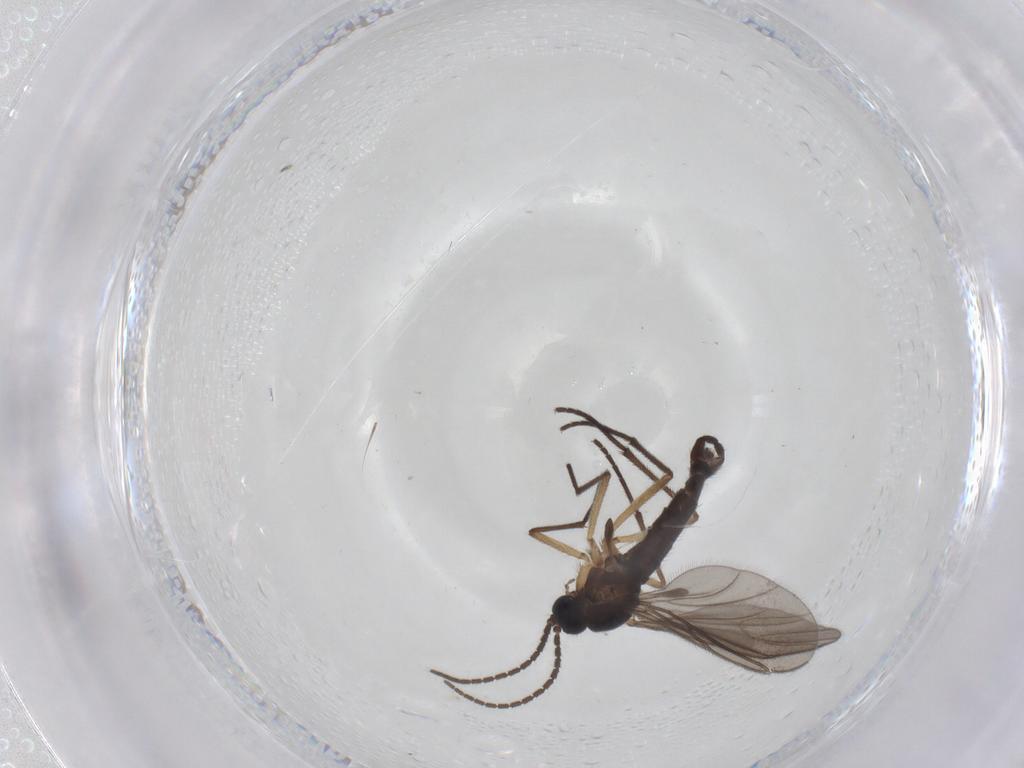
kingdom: Animalia
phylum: Arthropoda
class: Insecta
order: Diptera
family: Sciaridae
